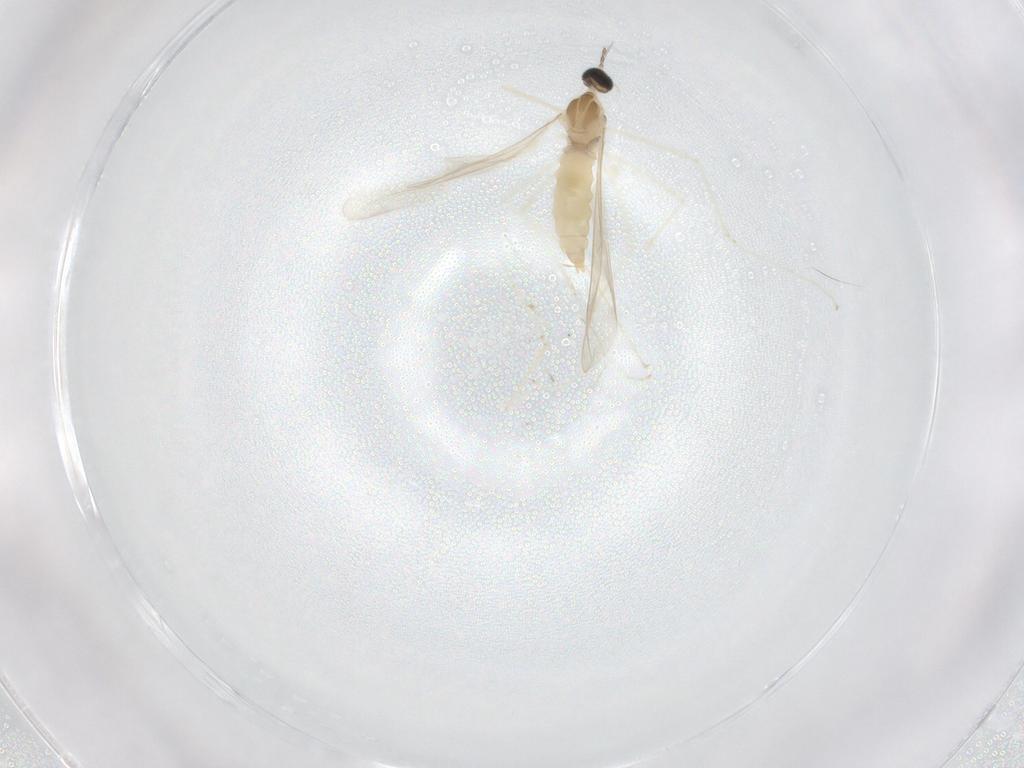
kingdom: Animalia
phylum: Arthropoda
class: Insecta
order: Diptera
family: Cecidomyiidae
